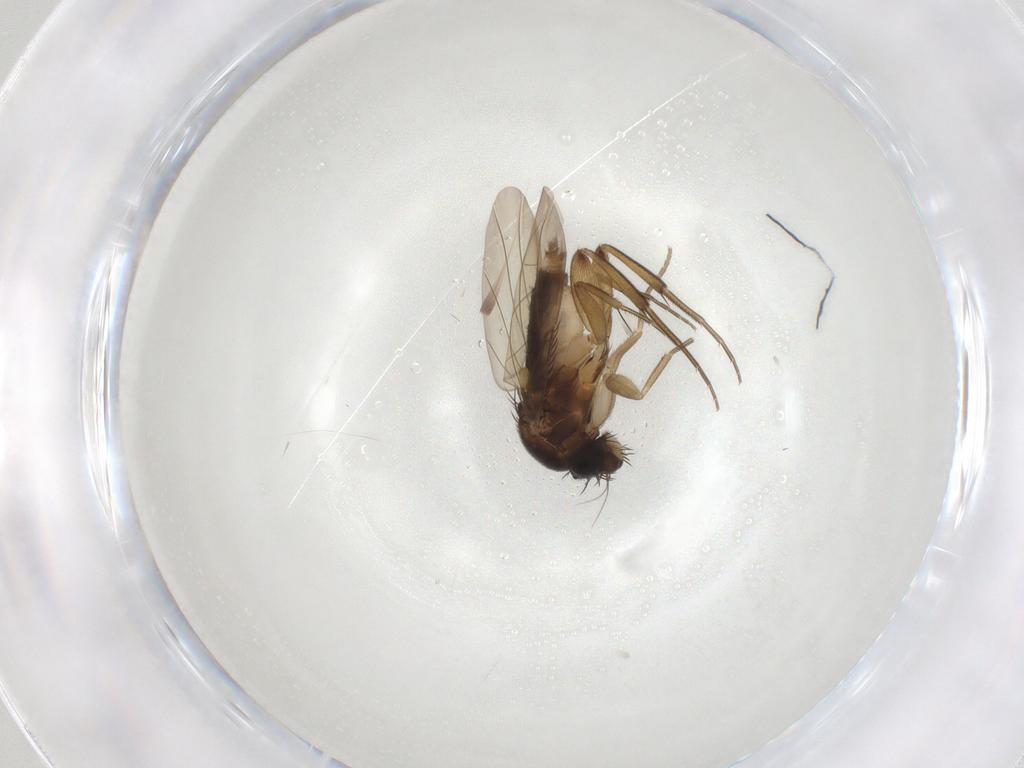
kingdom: Animalia
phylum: Arthropoda
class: Insecta
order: Diptera
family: Phoridae
